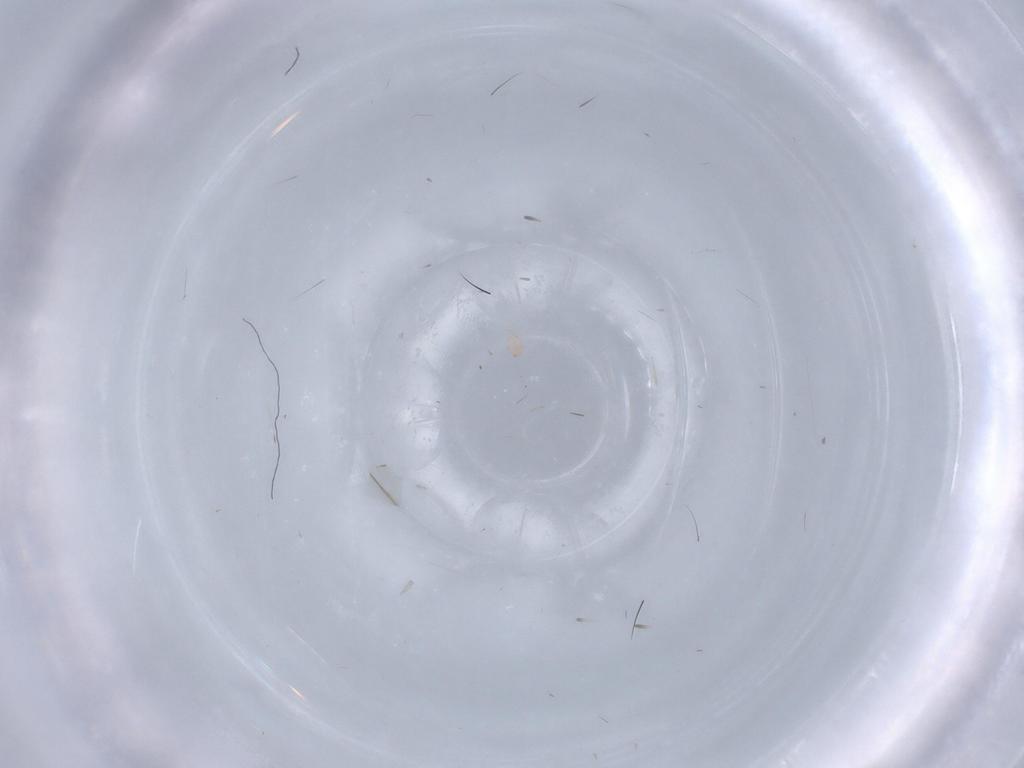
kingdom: Animalia
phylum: Arthropoda
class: Arachnida
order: Sarcoptiformes
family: Acaridae
